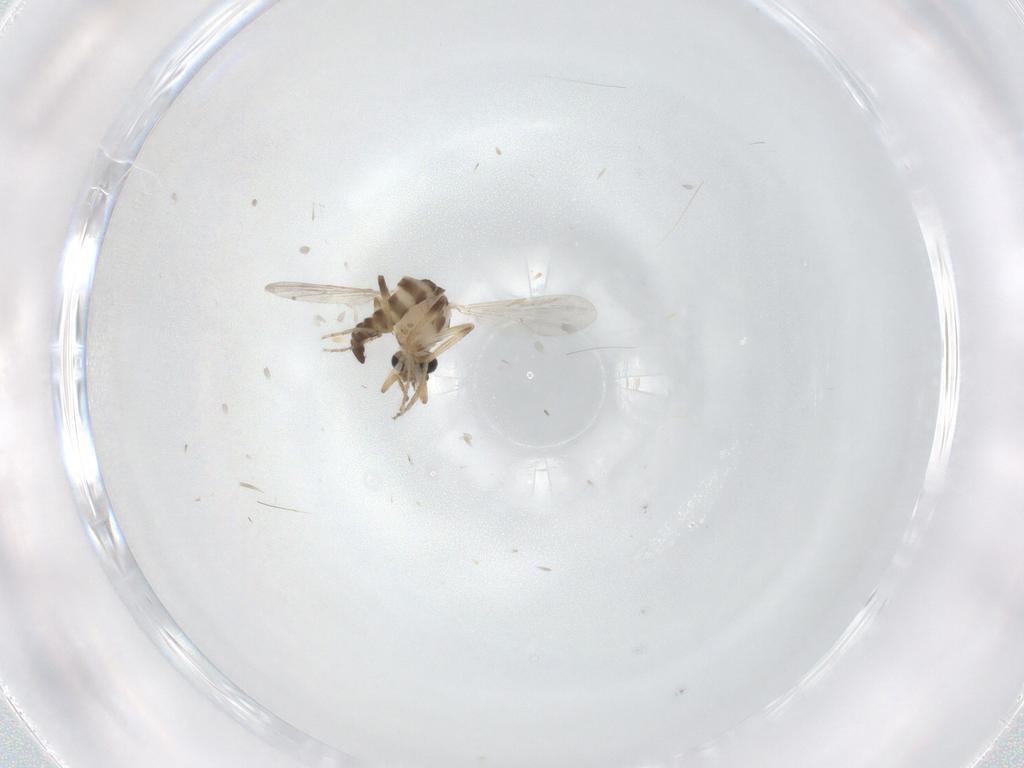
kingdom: Animalia
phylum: Arthropoda
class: Insecta
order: Diptera
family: Ceratopogonidae
